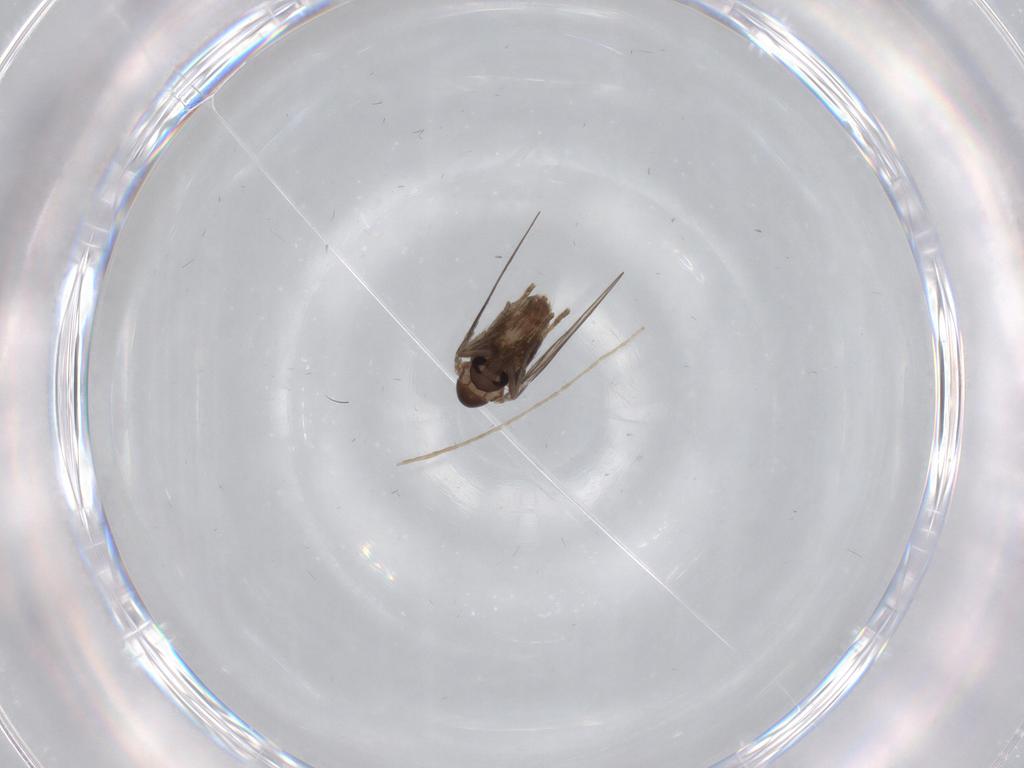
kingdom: Animalia
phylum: Arthropoda
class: Insecta
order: Diptera
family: Psychodidae
